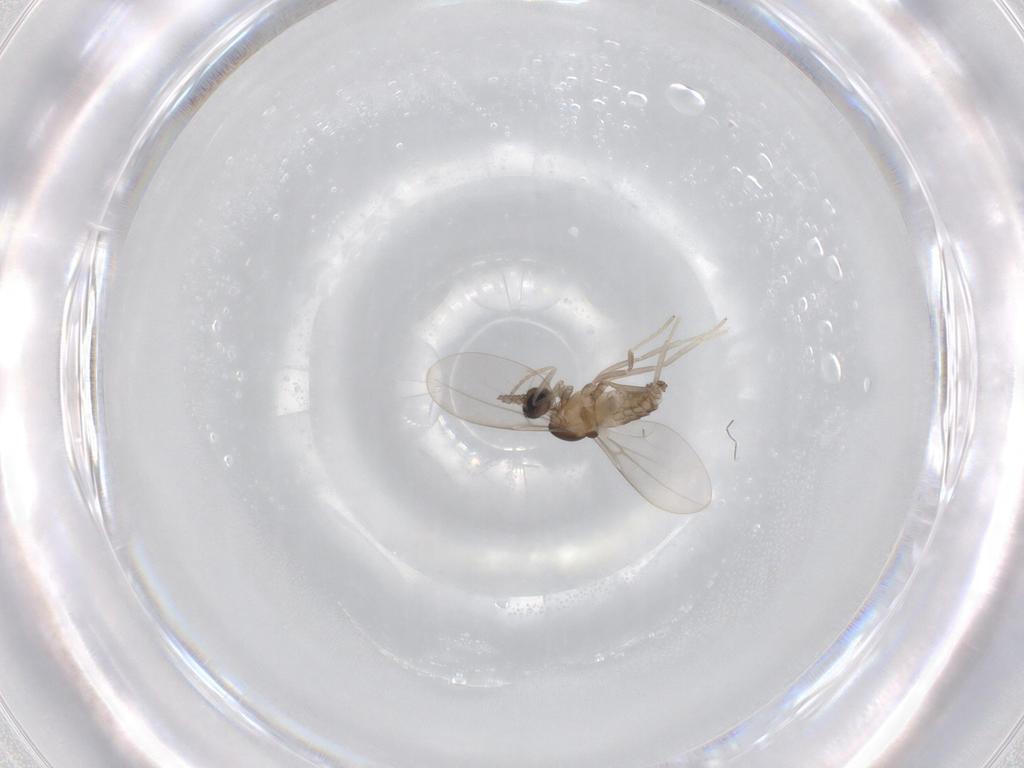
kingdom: Animalia
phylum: Arthropoda
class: Insecta
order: Diptera
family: Cecidomyiidae
